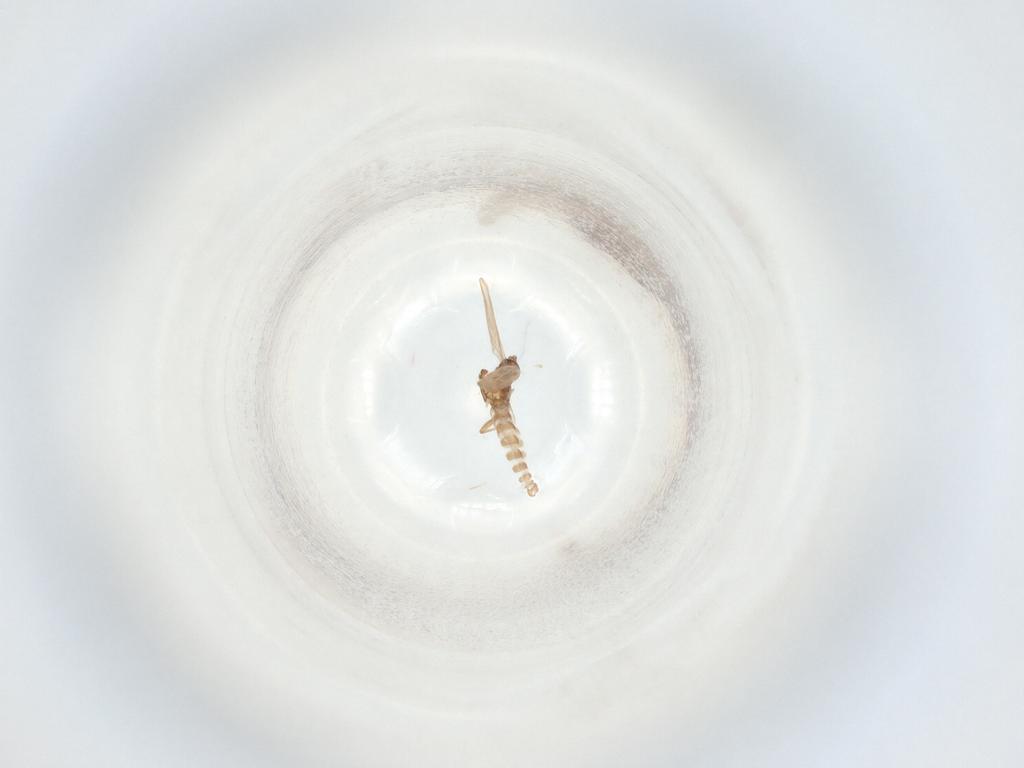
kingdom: Animalia
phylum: Arthropoda
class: Insecta
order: Diptera
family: Sciaridae
